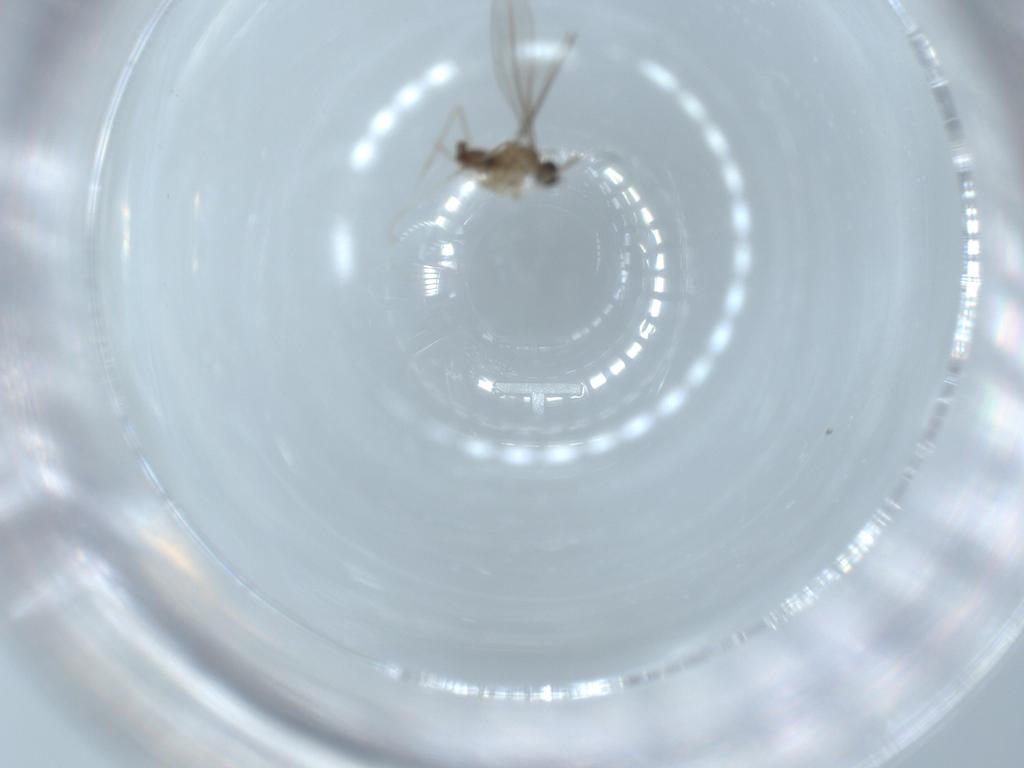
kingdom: Animalia
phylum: Arthropoda
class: Insecta
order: Diptera
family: Cecidomyiidae
